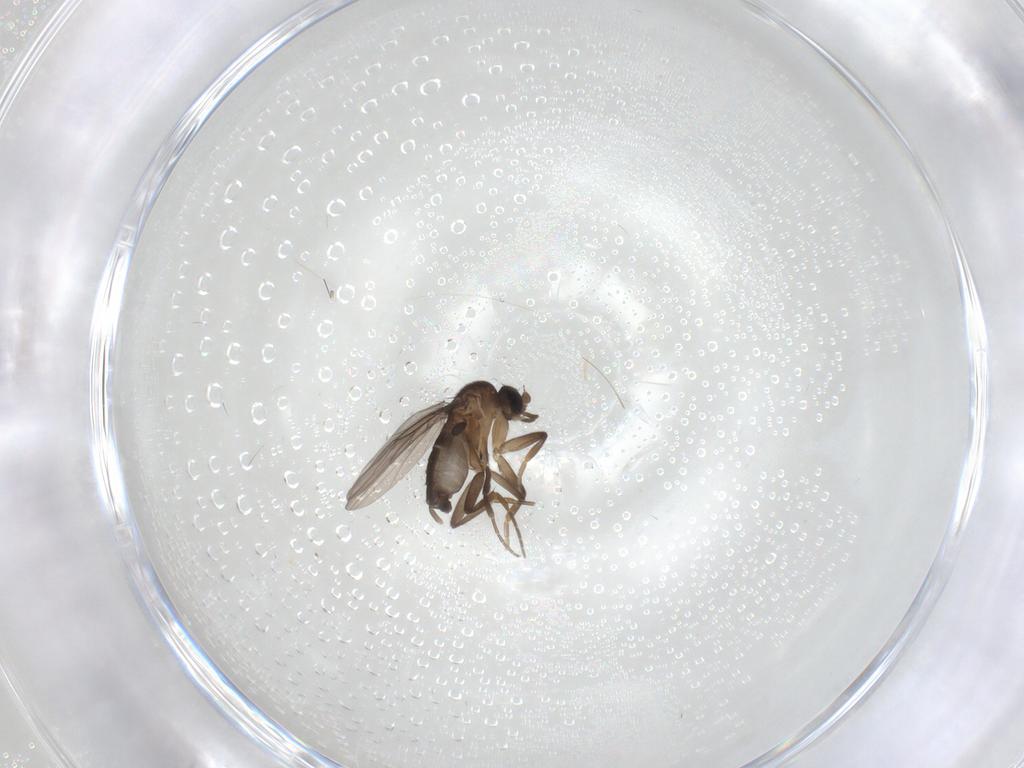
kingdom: Animalia
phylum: Arthropoda
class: Insecta
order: Diptera
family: Phoridae
